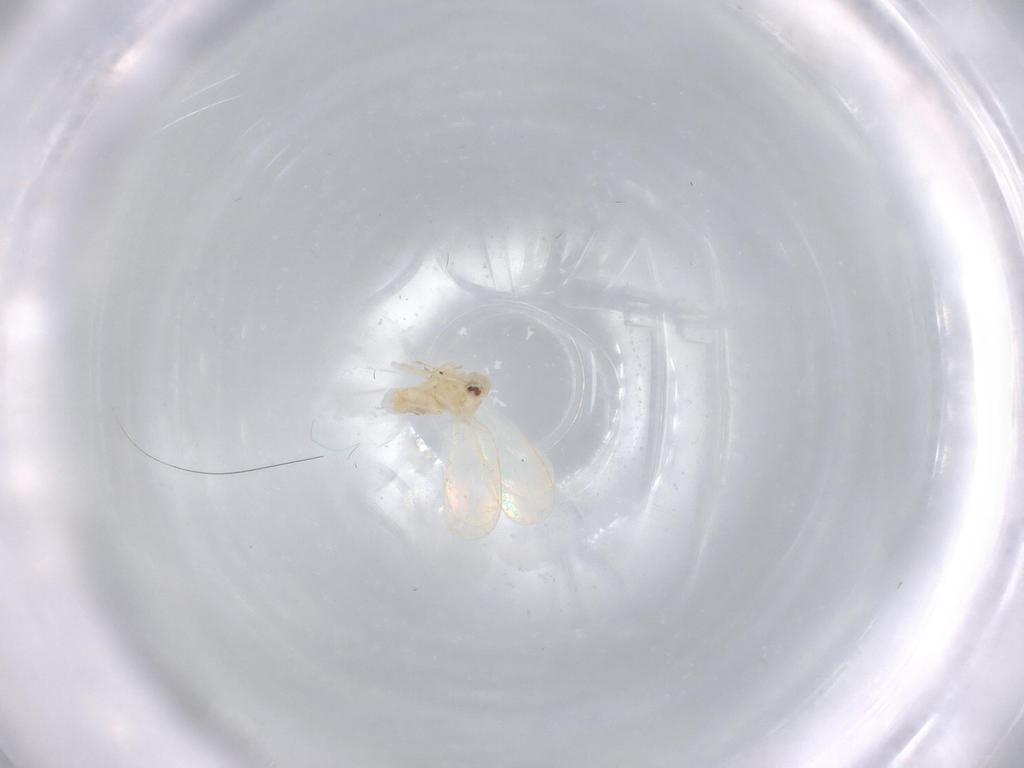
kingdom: Animalia
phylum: Arthropoda
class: Insecta
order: Hemiptera
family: Aleyrodidae
